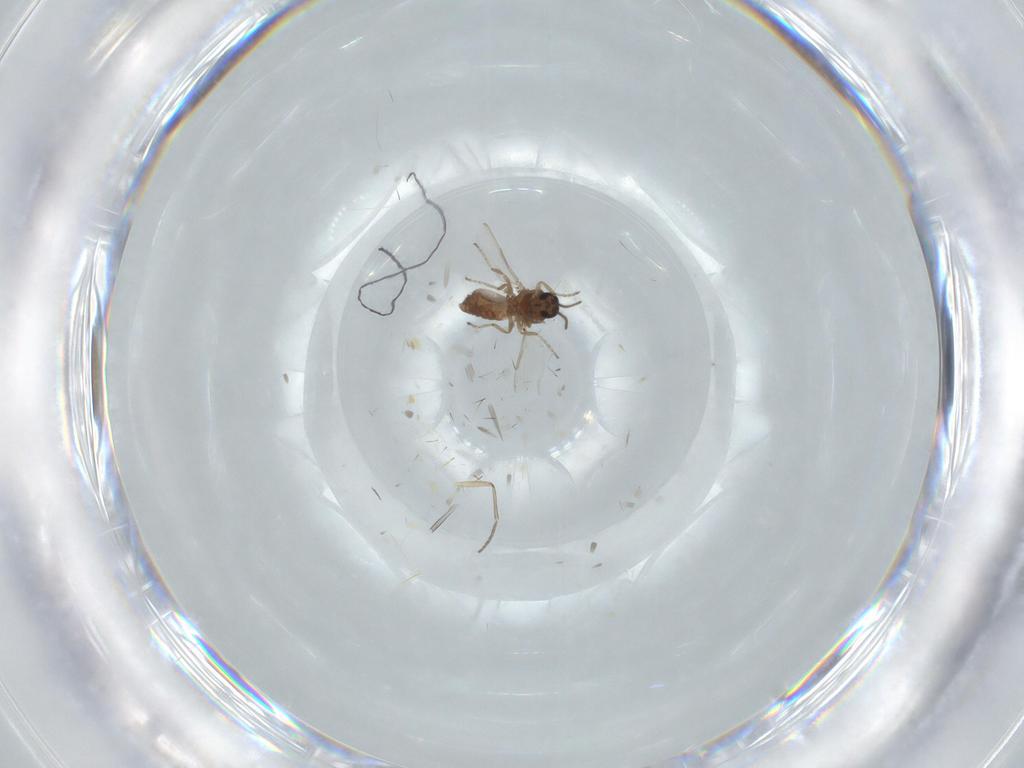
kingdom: Animalia
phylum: Arthropoda
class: Insecta
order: Diptera
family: Ceratopogonidae
